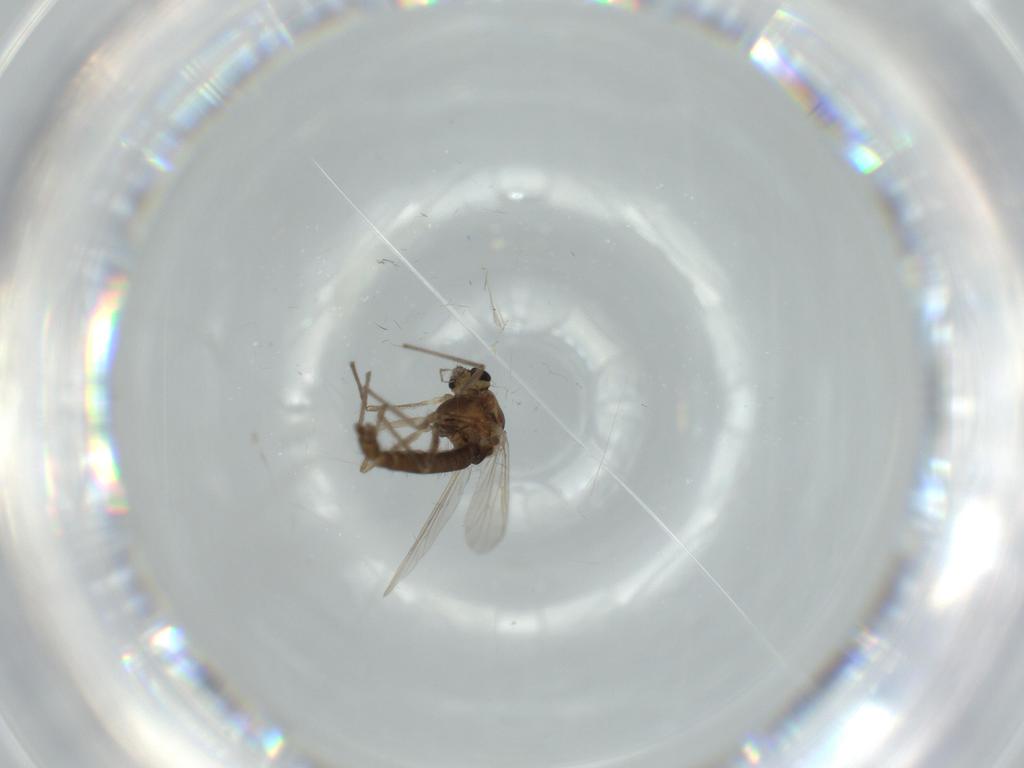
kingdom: Animalia
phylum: Arthropoda
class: Insecta
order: Diptera
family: Chironomidae
